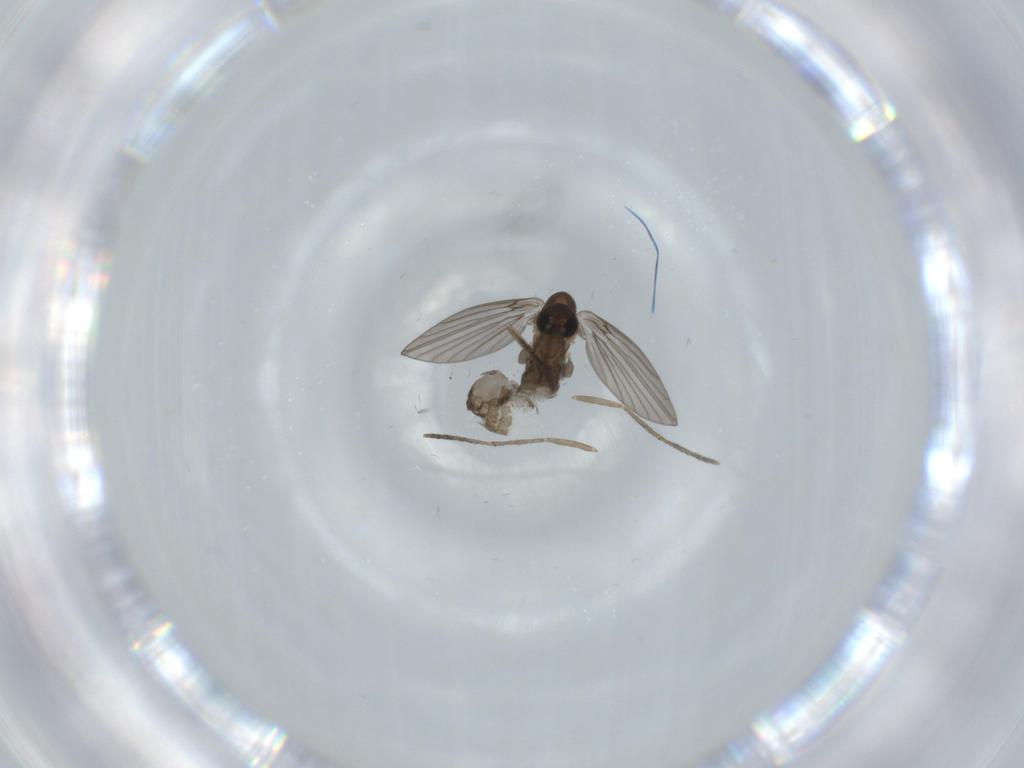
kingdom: Animalia
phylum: Arthropoda
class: Insecta
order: Diptera
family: Psychodidae
